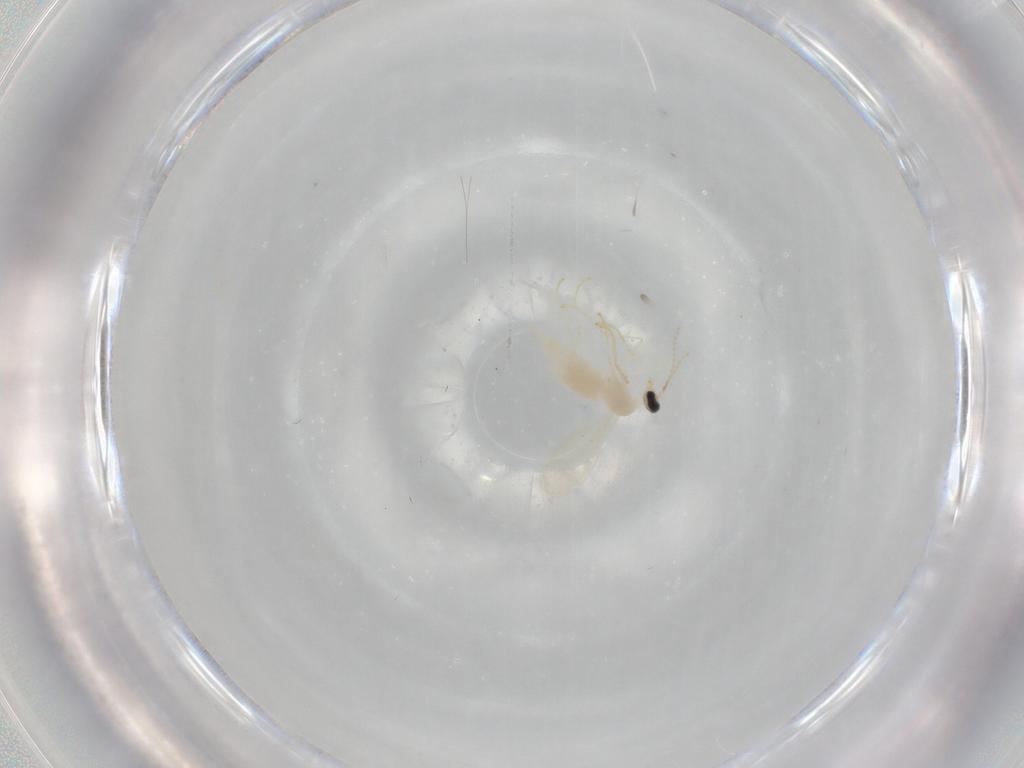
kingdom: Animalia
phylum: Arthropoda
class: Insecta
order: Diptera
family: Cecidomyiidae
